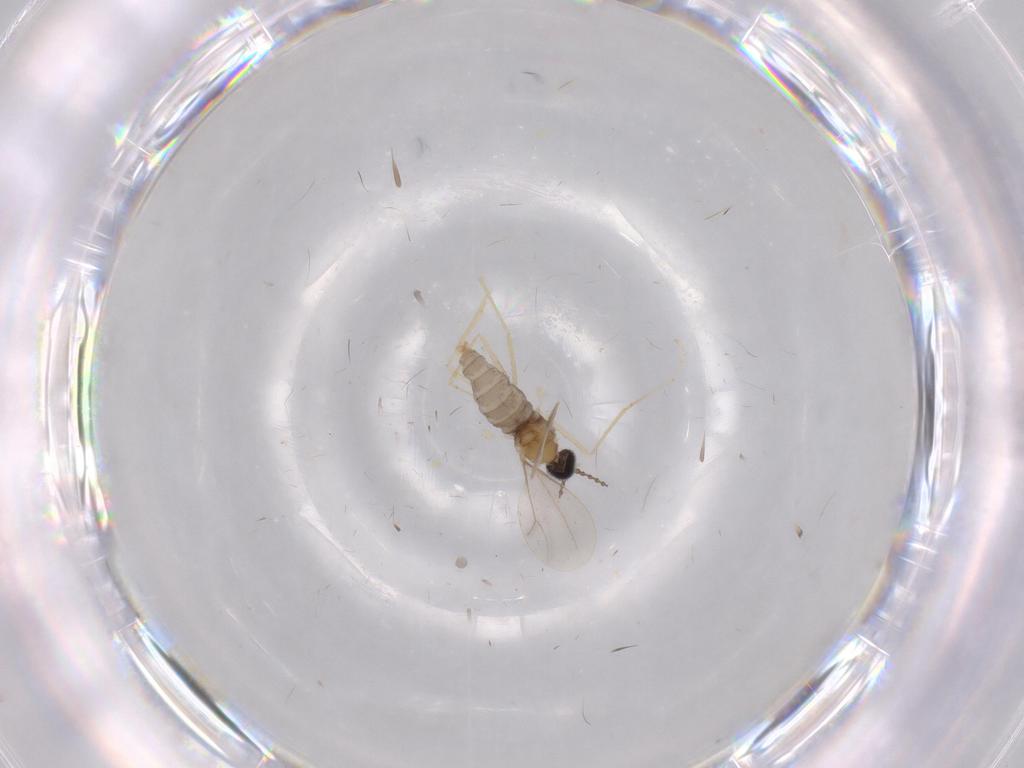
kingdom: Animalia
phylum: Arthropoda
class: Insecta
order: Diptera
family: Cecidomyiidae
